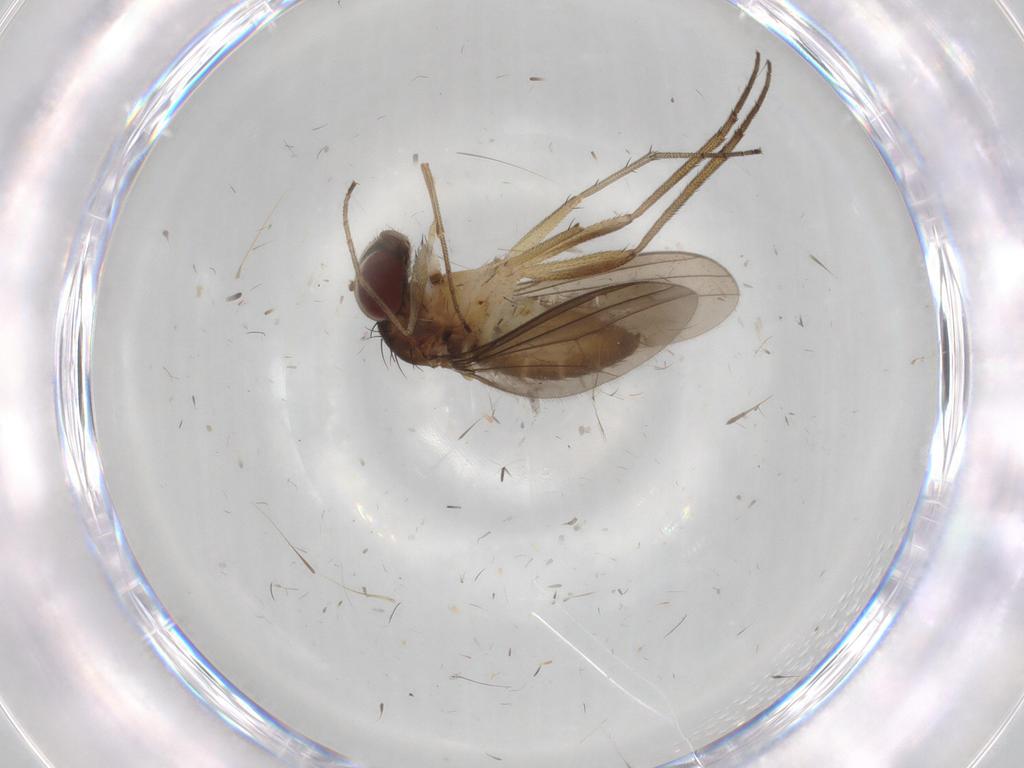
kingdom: Animalia
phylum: Arthropoda
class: Insecta
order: Diptera
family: Dolichopodidae
